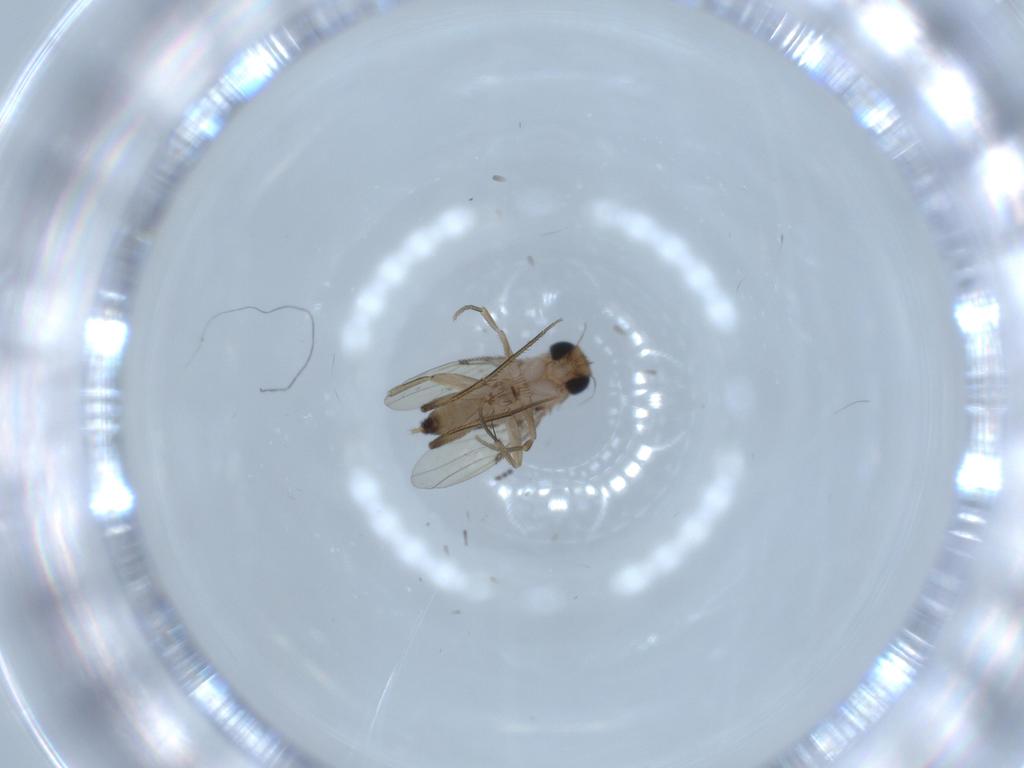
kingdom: Animalia
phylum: Arthropoda
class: Insecta
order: Diptera
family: Phoridae
